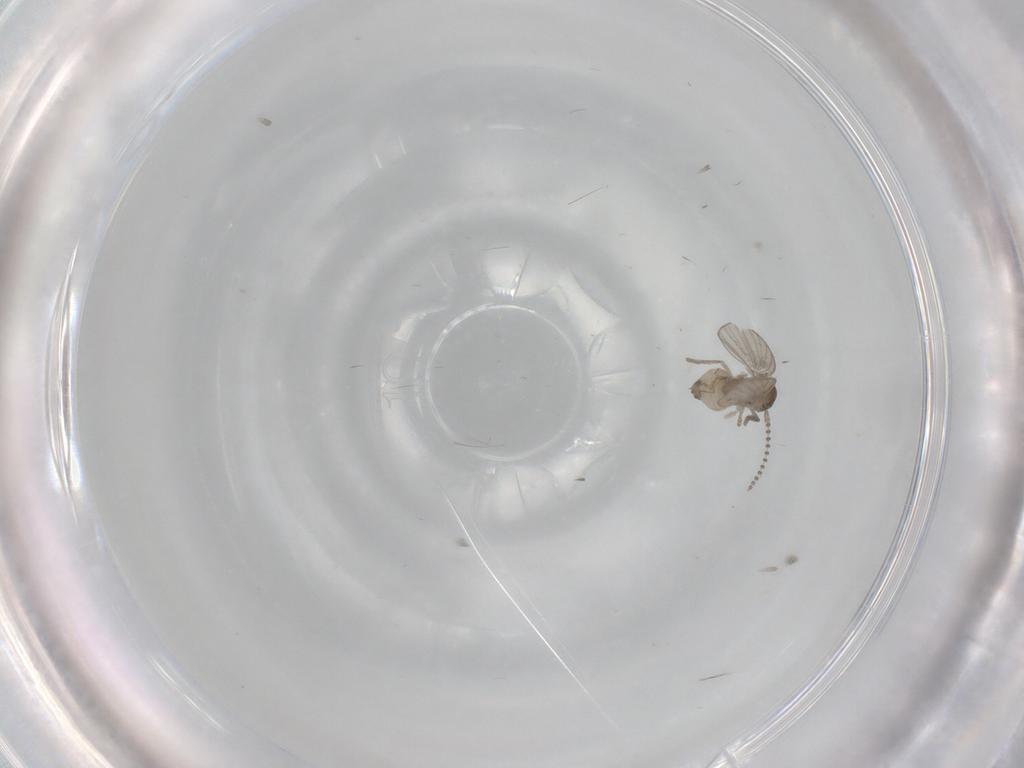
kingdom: Animalia
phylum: Arthropoda
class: Insecta
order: Diptera
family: Psychodidae
